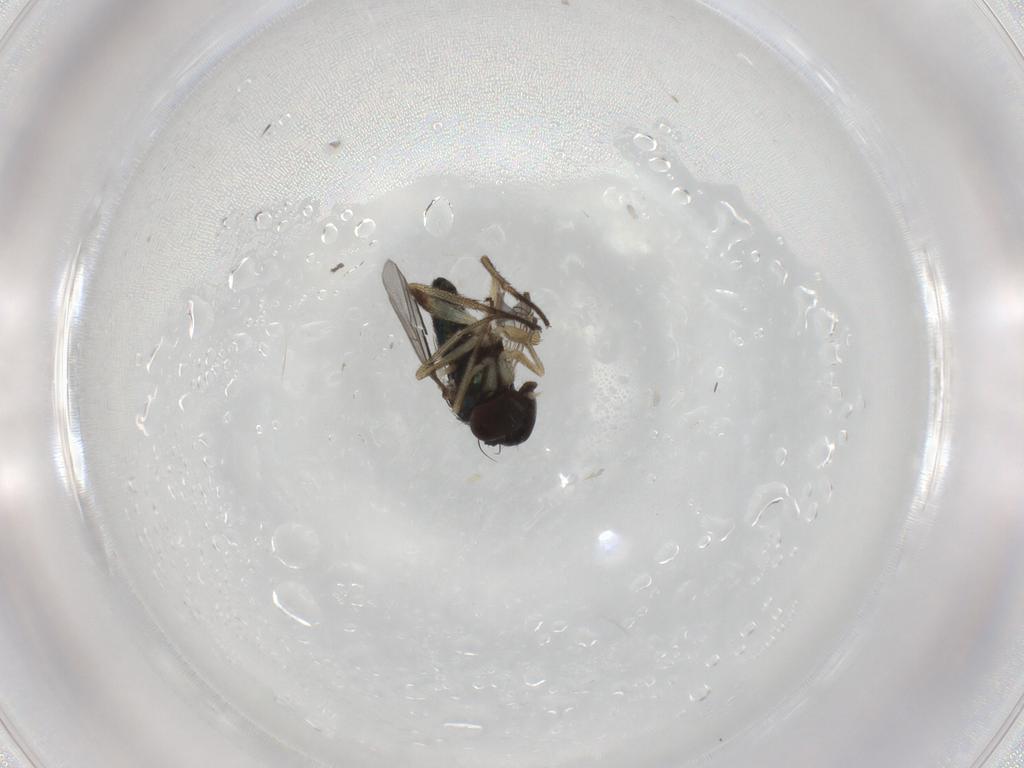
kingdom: Animalia
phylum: Arthropoda
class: Insecta
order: Diptera
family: Dolichopodidae
